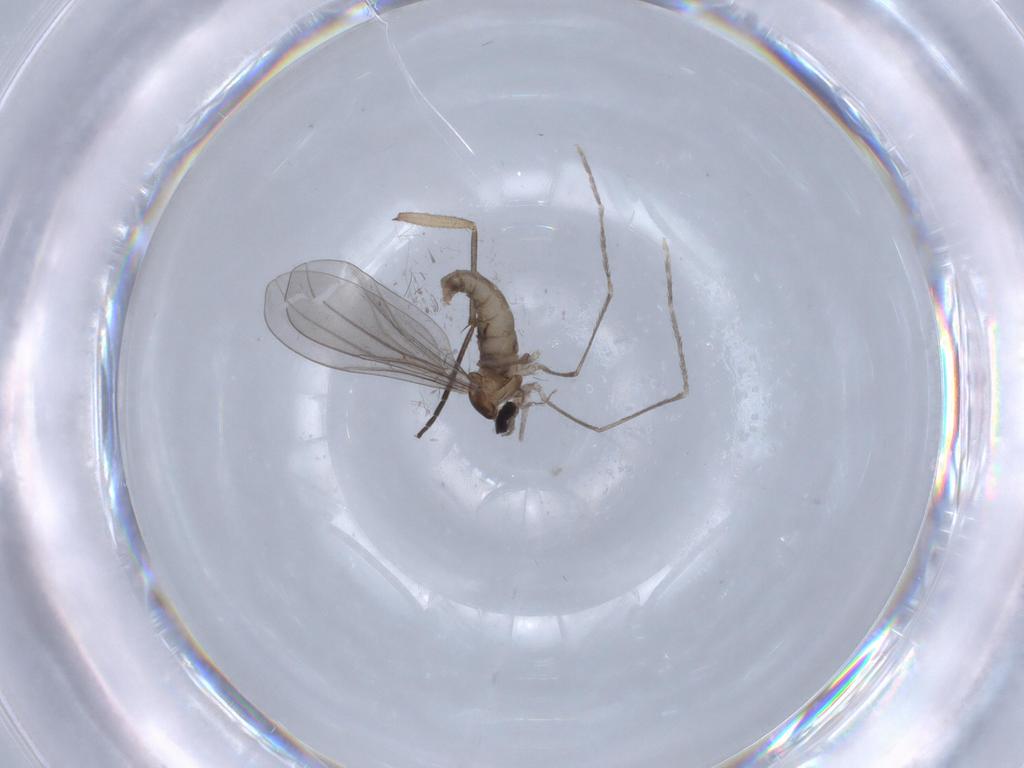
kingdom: Animalia
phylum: Arthropoda
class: Insecta
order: Diptera
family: Cecidomyiidae
